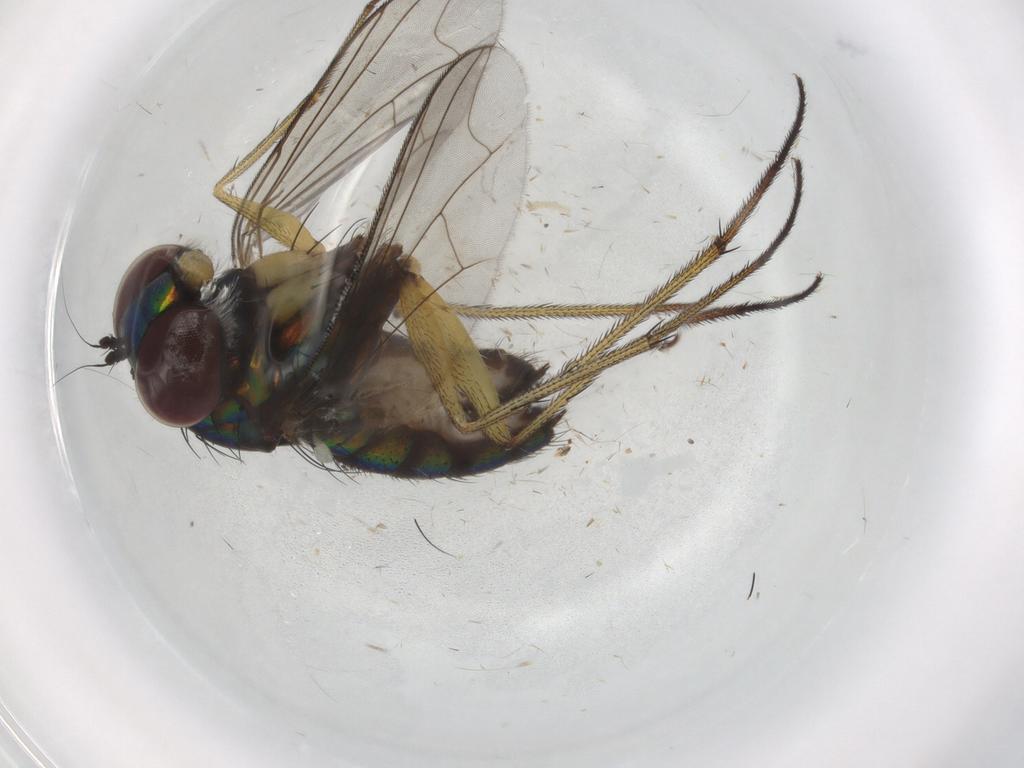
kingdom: Animalia
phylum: Arthropoda
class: Insecta
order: Diptera
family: Dolichopodidae
